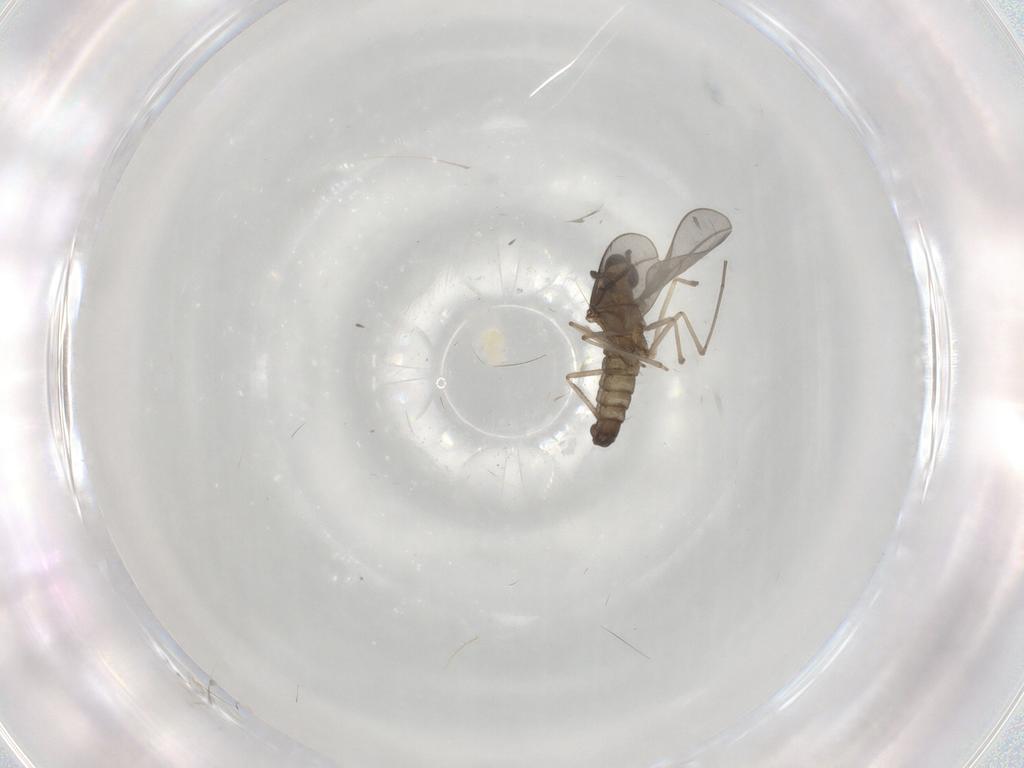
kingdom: Animalia
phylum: Arthropoda
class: Insecta
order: Diptera
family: Cecidomyiidae
